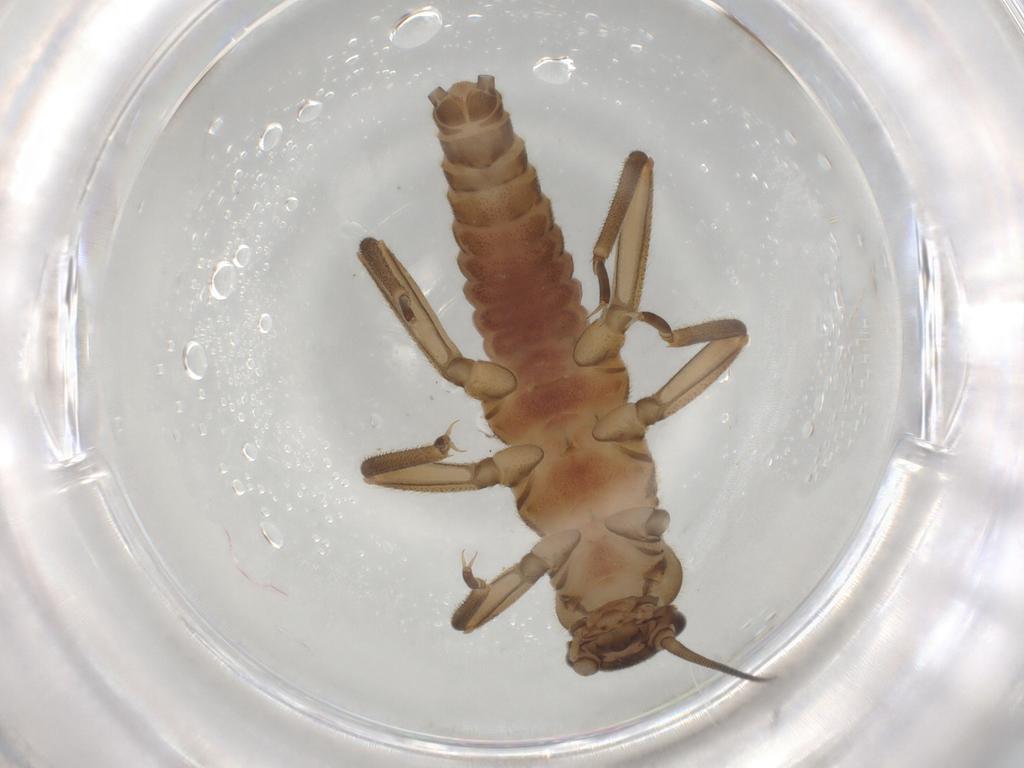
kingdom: Animalia
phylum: Arthropoda
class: Insecta
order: Plecoptera
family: Nemouridae
